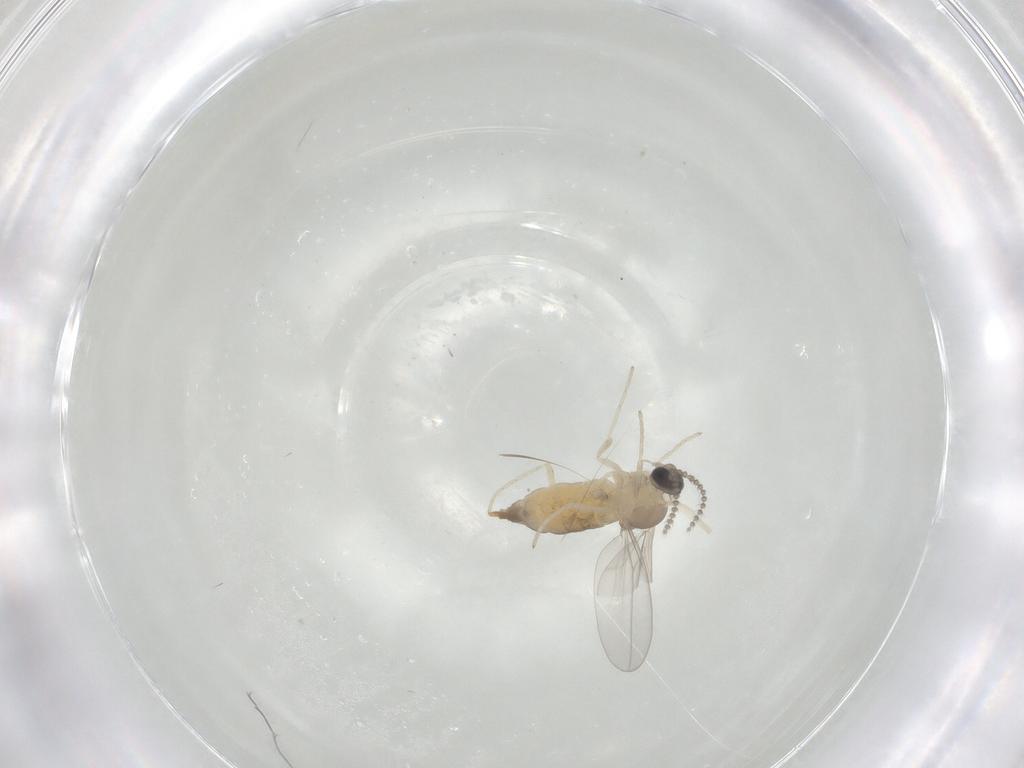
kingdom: Animalia
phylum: Arthropoda
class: Insecta
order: Diptera
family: Cecidomyiidae
